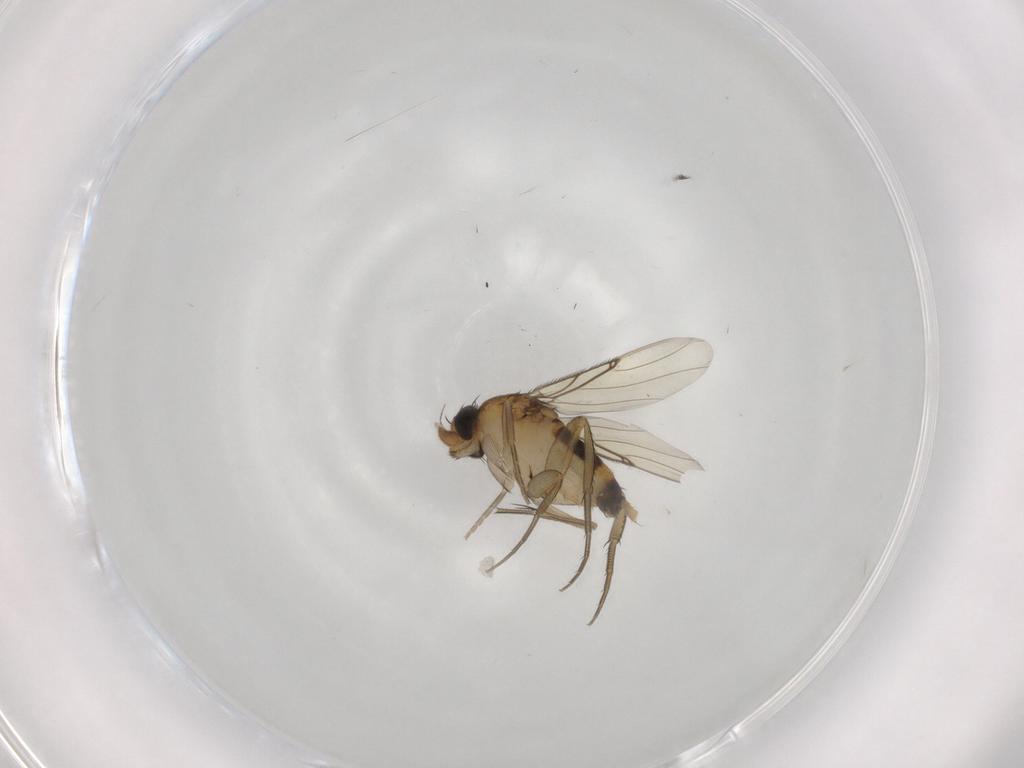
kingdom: Animalia
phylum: Arthropoda
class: Insecta
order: Diptera
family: Phoridae
